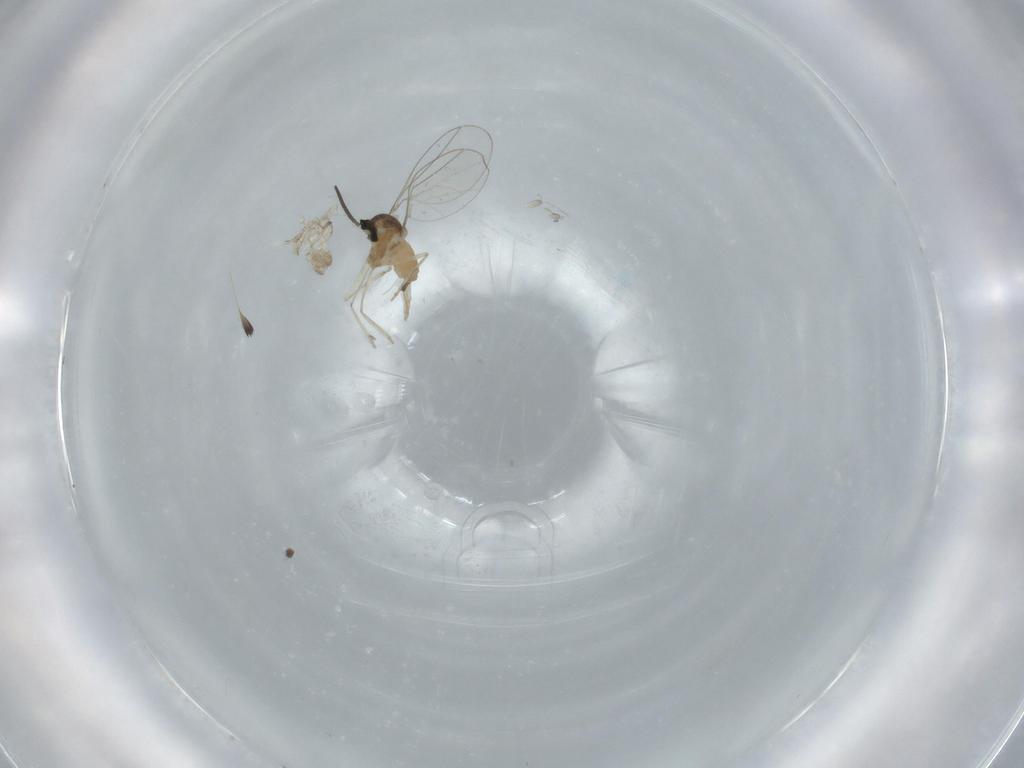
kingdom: Animalia
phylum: Arthropoda
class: Insecta
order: Diptera
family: Cecidomyiidae
